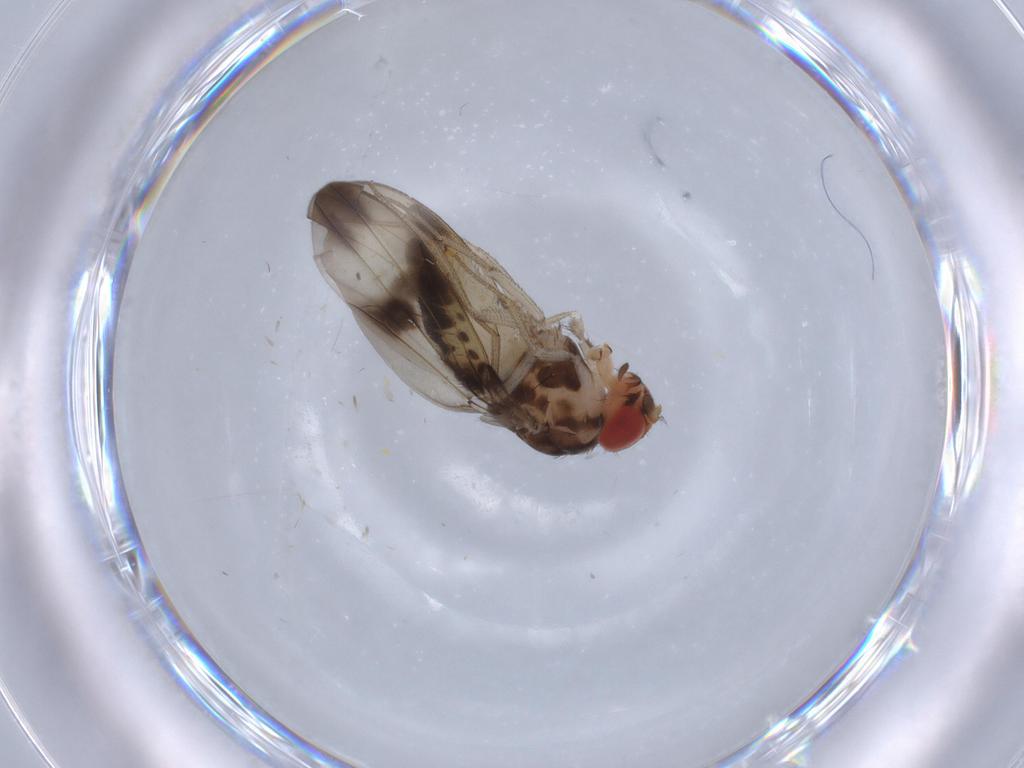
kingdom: Animalia
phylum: Arthropoda
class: Insecta
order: Diptera
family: Drosophilidae
